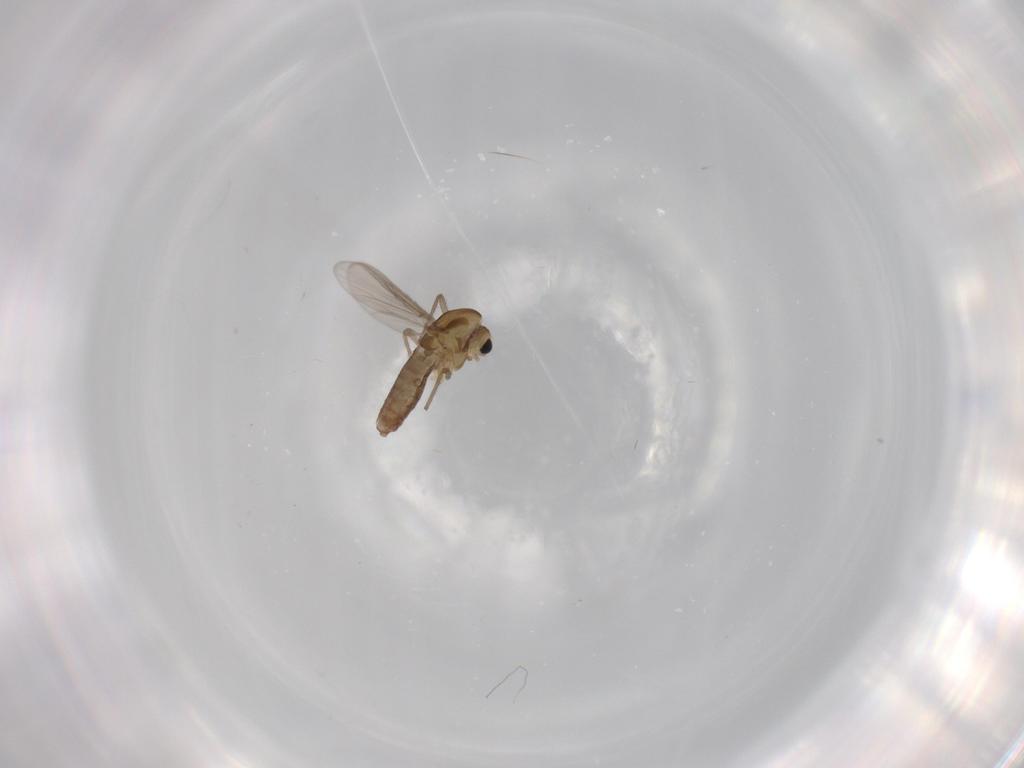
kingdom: Animalia
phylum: Arthropoda
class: Insecta
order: Diptera
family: Chironomidae
